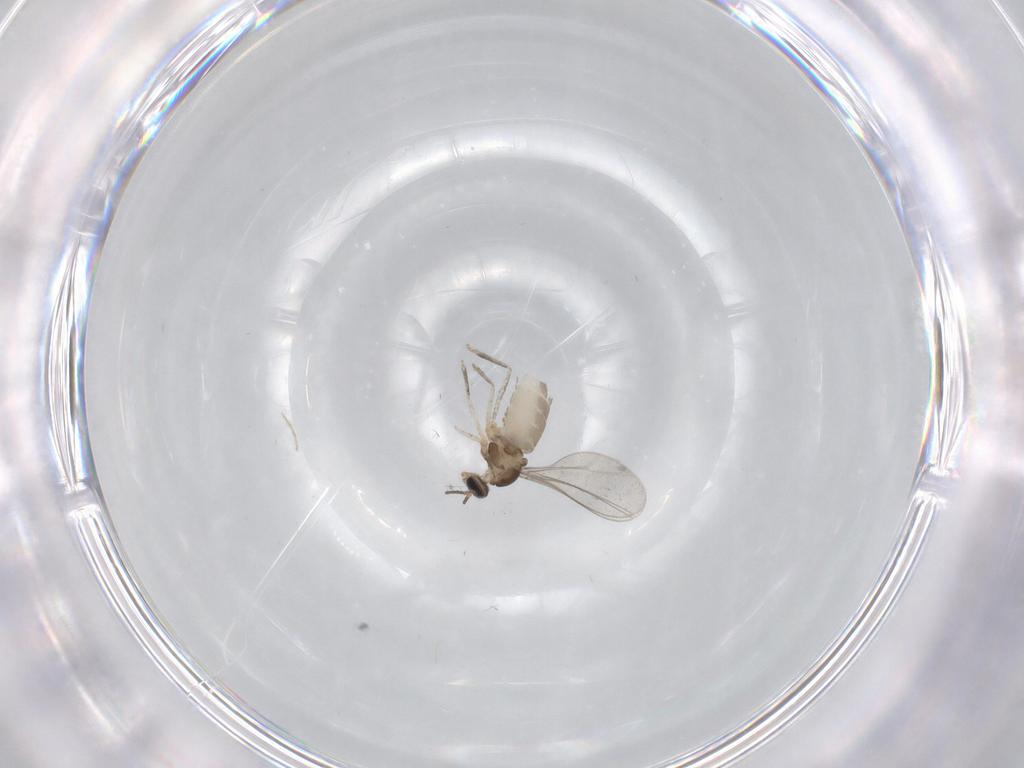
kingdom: Animalia
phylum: Arthropoda
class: Insecta
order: Diptera
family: Cecidomyiidae
